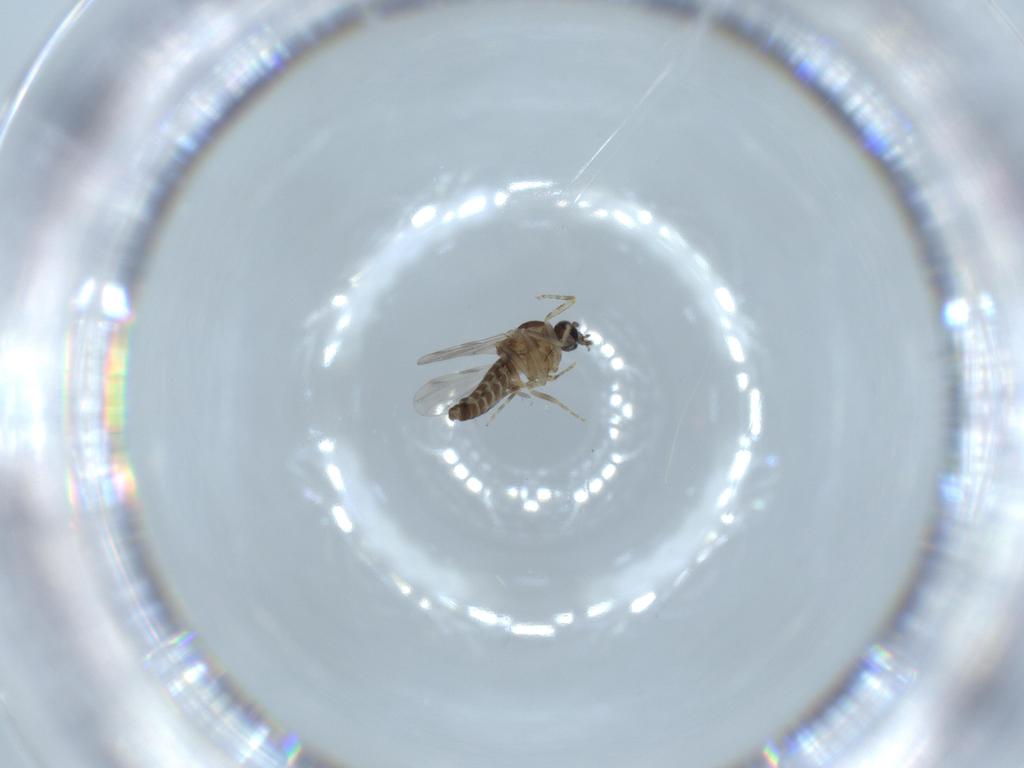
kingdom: Animalia
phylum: Arthropoda
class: Insecta
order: Diptera
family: Ceratopogonidae
